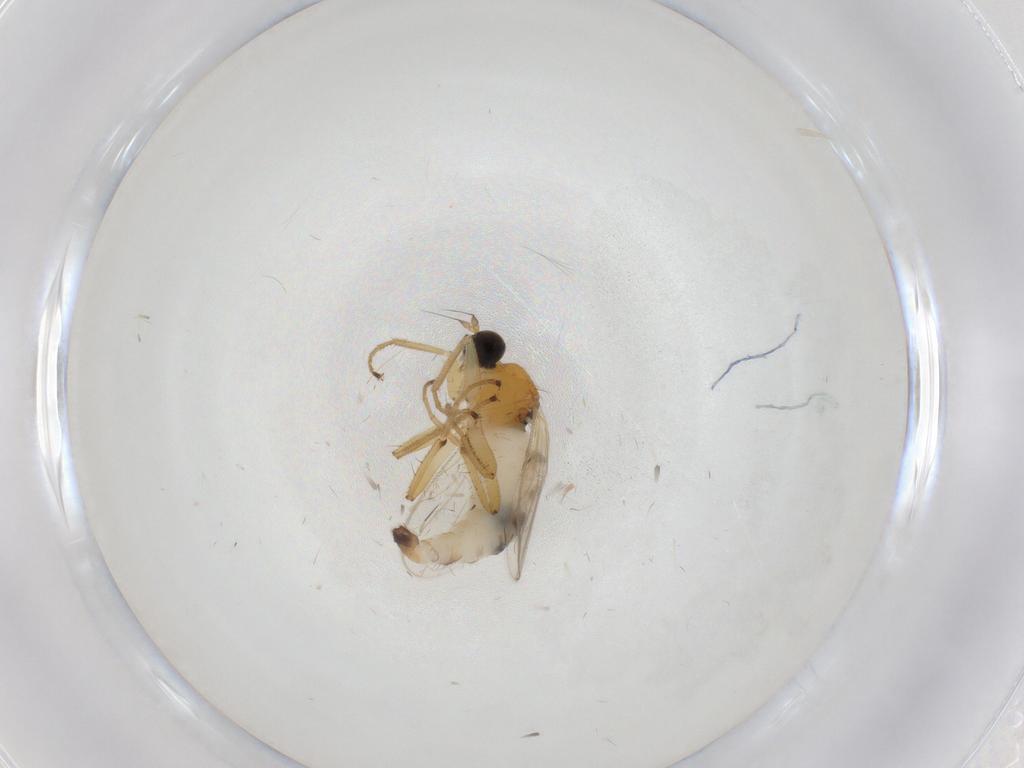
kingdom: Animalia
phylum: Arthropoda
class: Insecta
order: Diptera
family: Hybotidae
